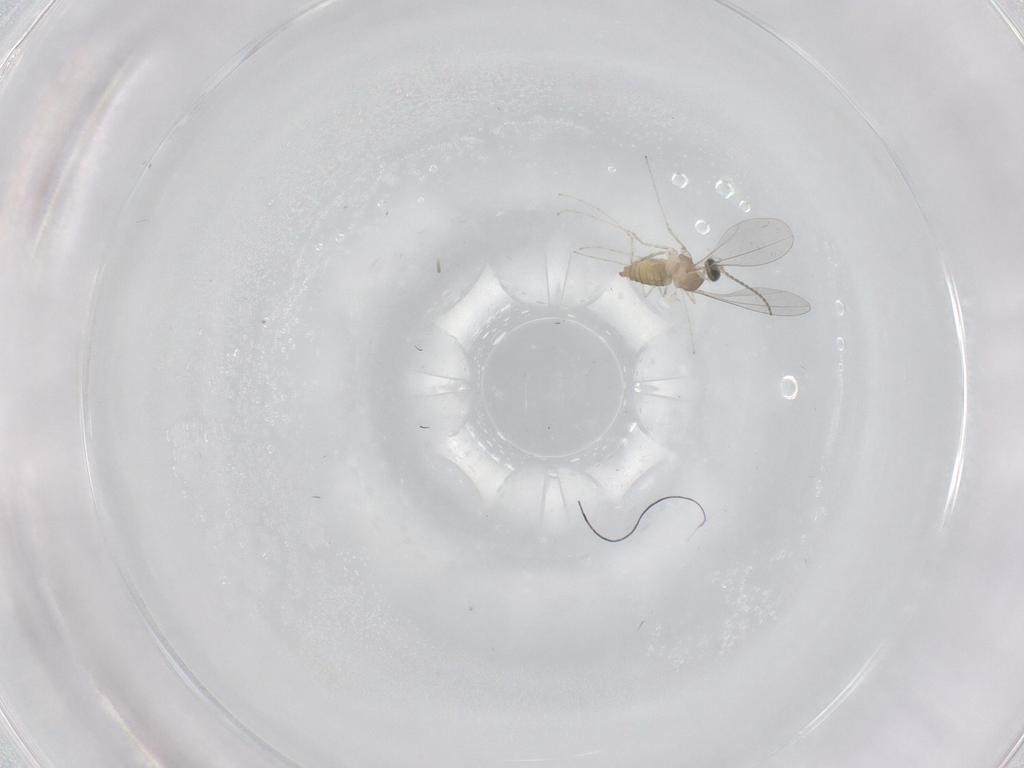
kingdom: Animalia
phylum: Arthropoda
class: Insecta
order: Diptera
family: Cecidomyiidae
